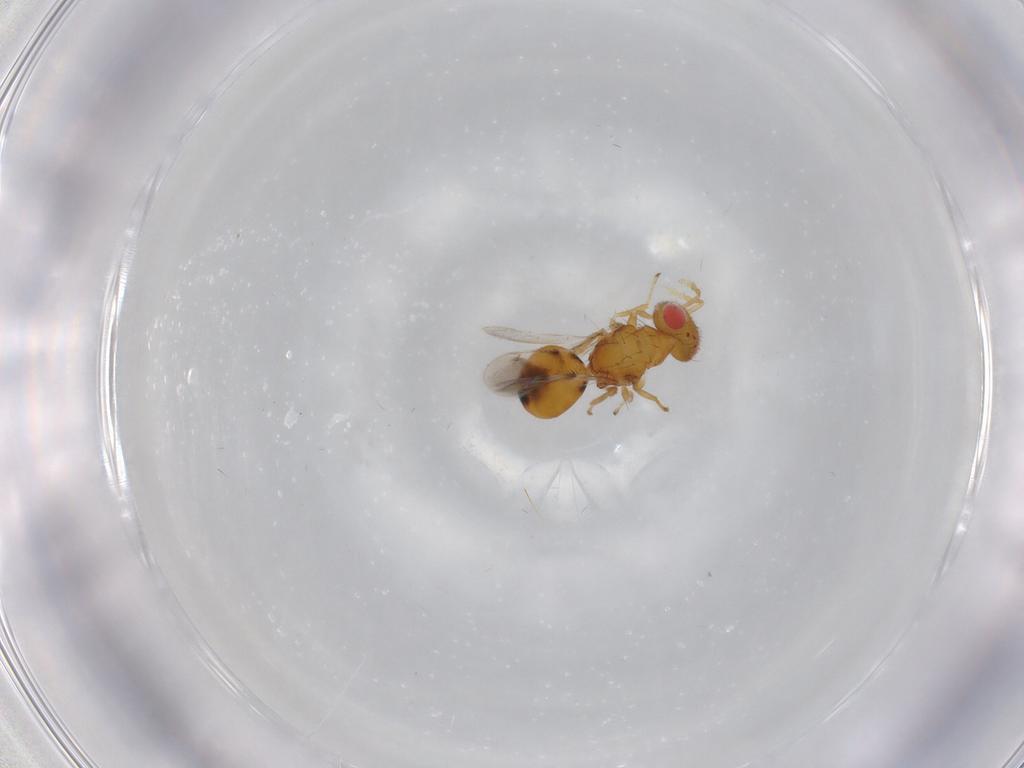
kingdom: Animalia
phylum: Arthropoda
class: Insecta
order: Hymenoptera
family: Eulophidae
